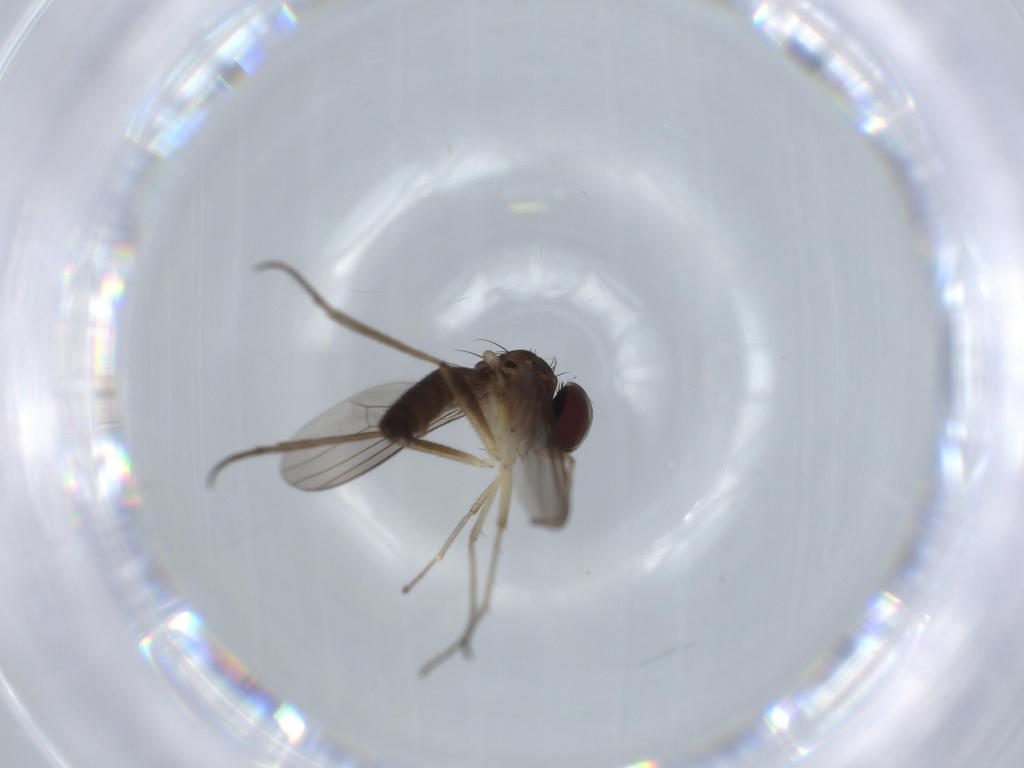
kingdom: Animalia
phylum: Arthropoda
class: Insecta
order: Diptera
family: Dolichopodidae
